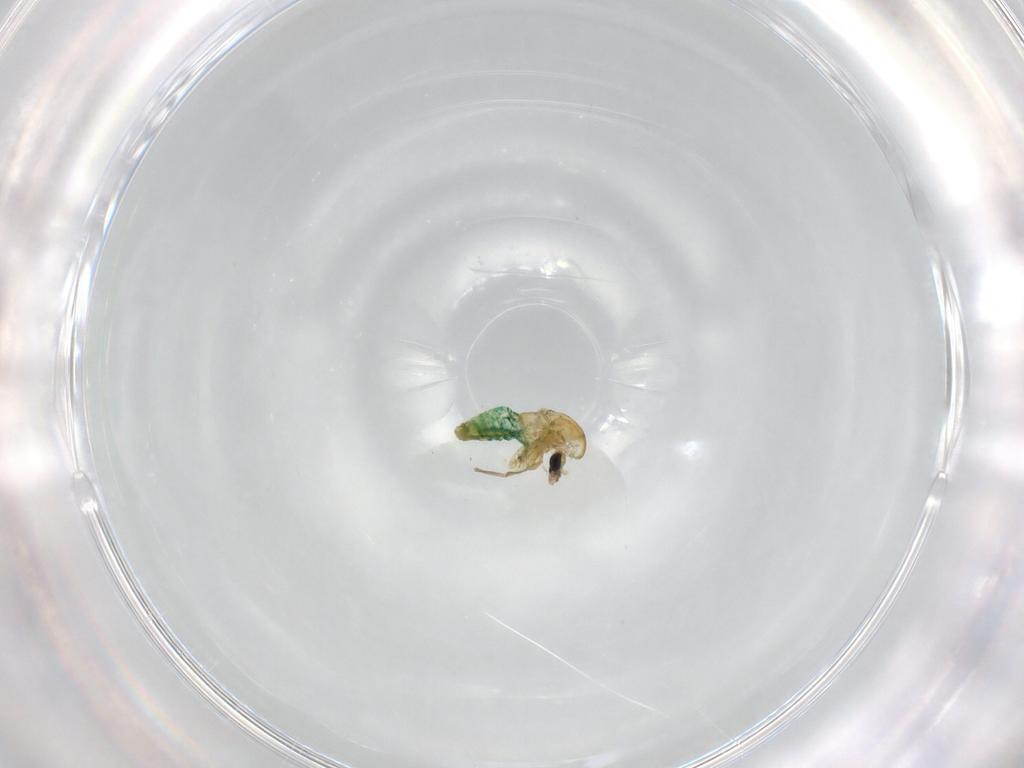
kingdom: Animalia
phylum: Arthropoda
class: Insecta
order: Diptera
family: Chironomidae
